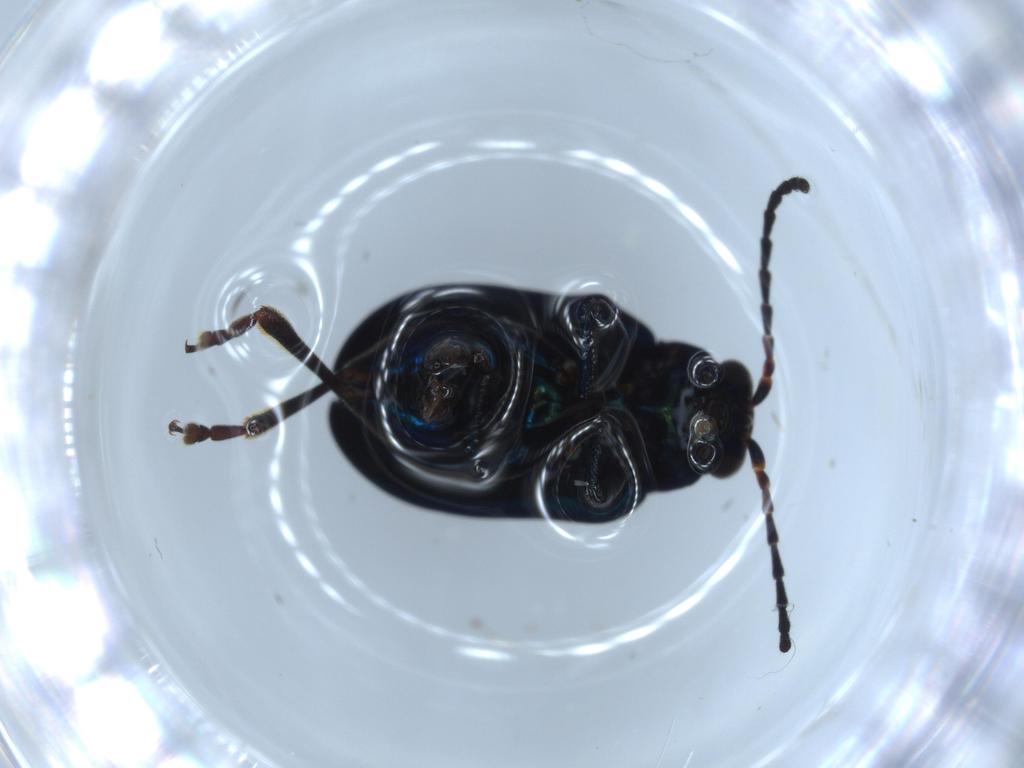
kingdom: Animalia
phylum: Arthropoda
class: Insecta
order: Coleoptera
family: Chrysomelidae
